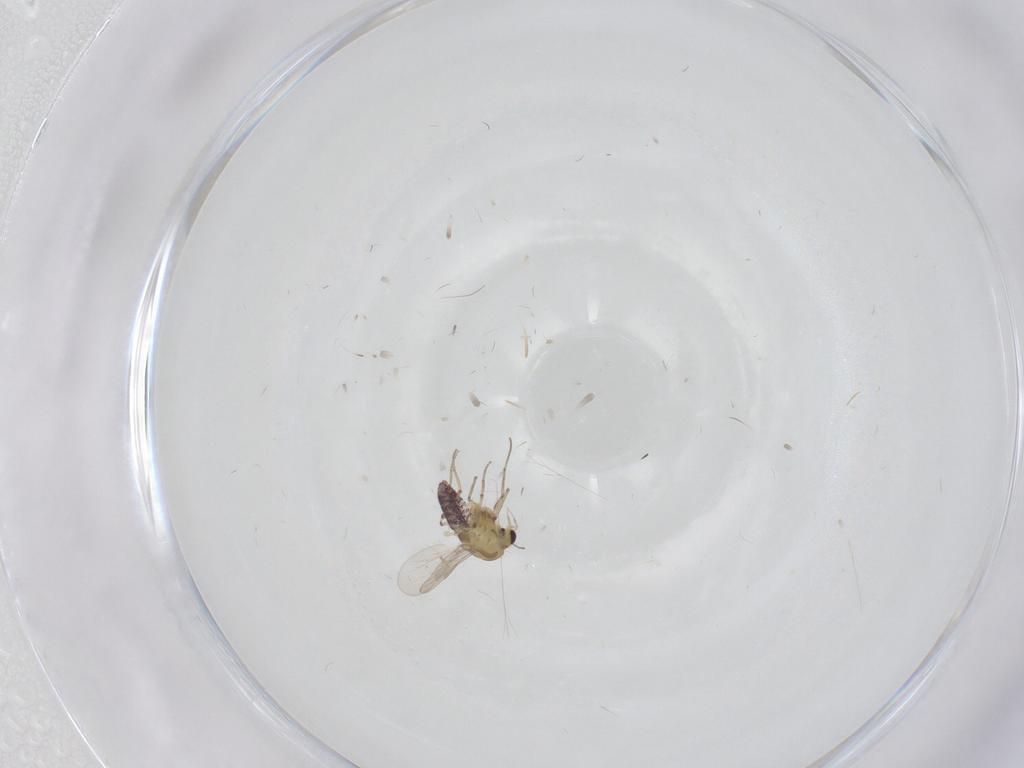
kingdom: Animalia
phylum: Arthropoda
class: Insecta
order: Diptera
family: Chironomidae
